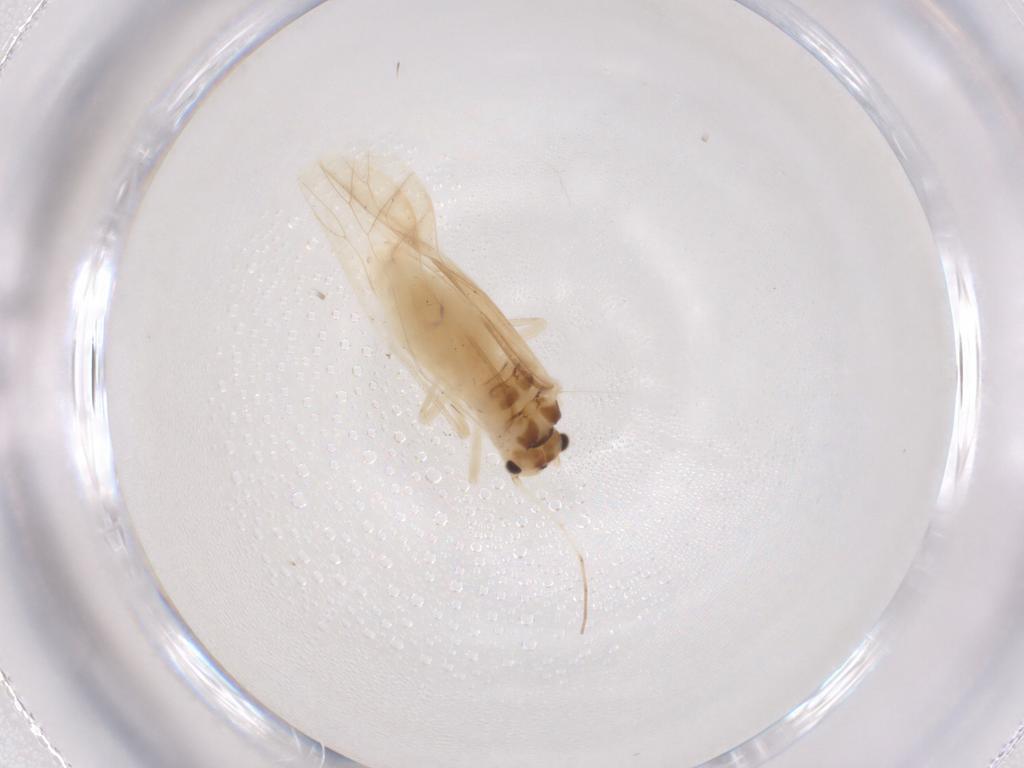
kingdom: Animalia
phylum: Arthropoda
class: Insecta
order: Psocodea
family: Caeciliusidae
